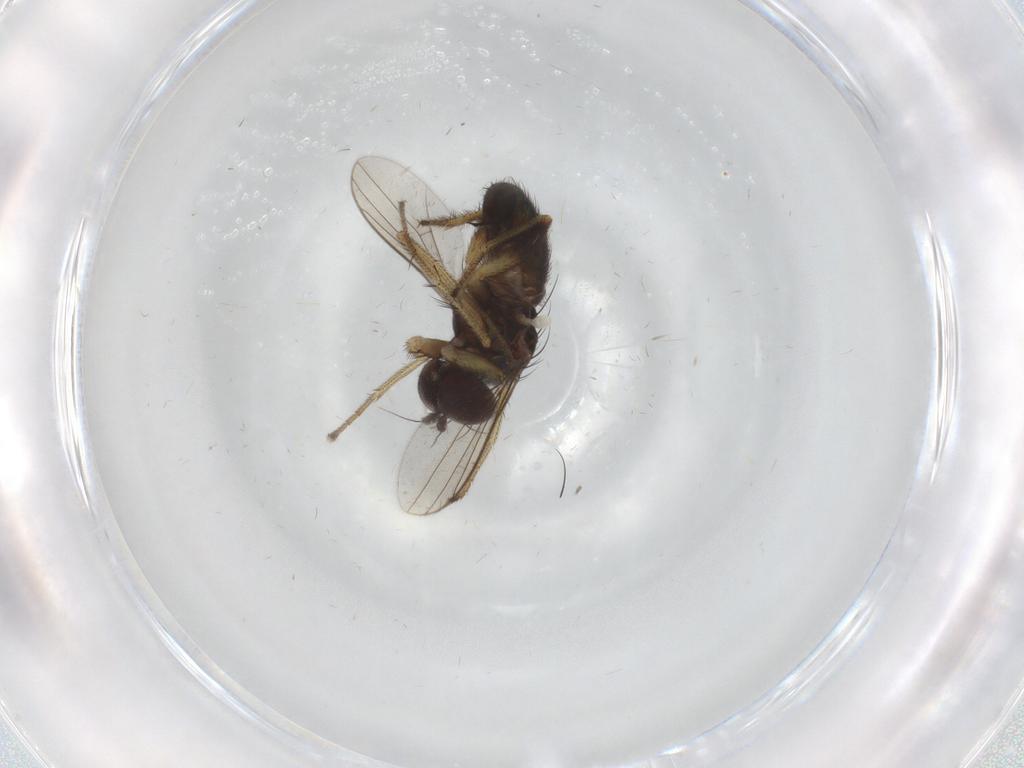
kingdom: Animalia
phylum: Arthropoda
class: Insecta
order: Diptera
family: Dolichopodidae
